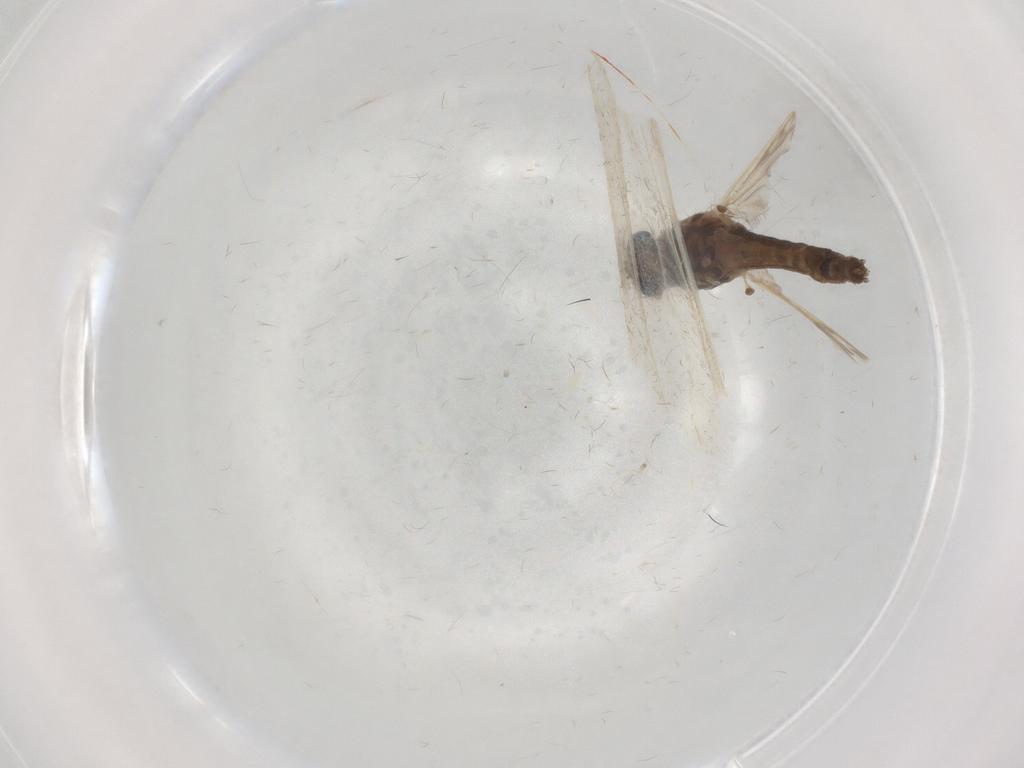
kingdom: Animalia
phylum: Arthropoda
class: Insecta
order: Diptera
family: Chironomidae
